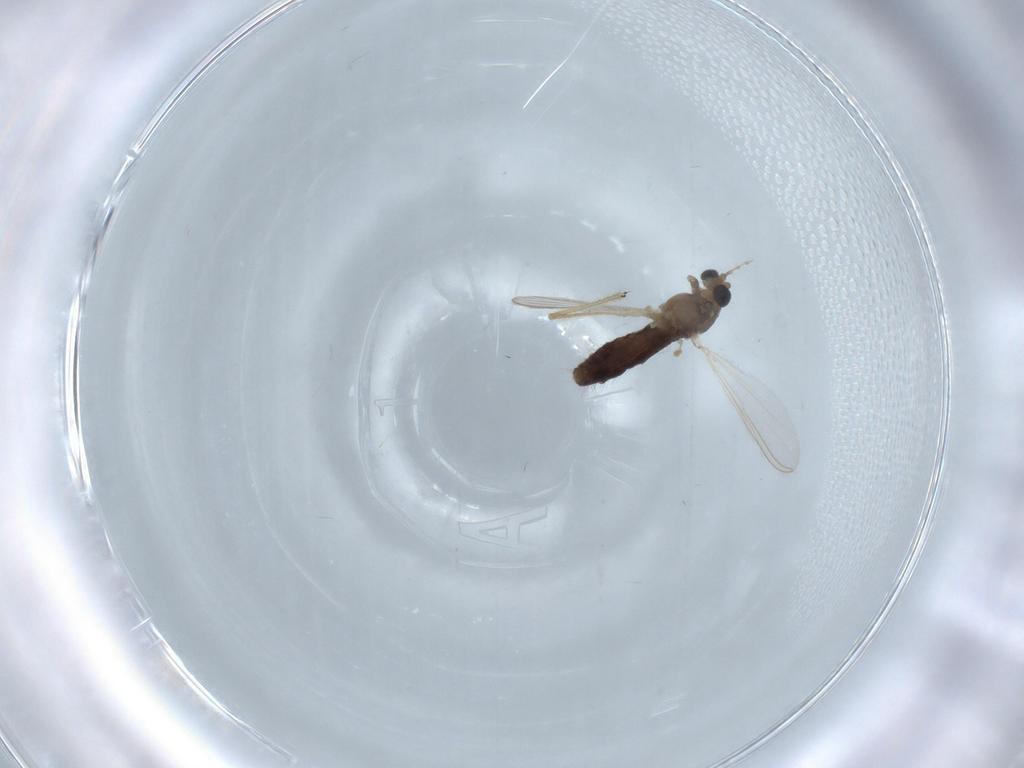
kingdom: Animalia
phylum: Arthropoda
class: Insecta
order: Diptera
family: Chironomidae
